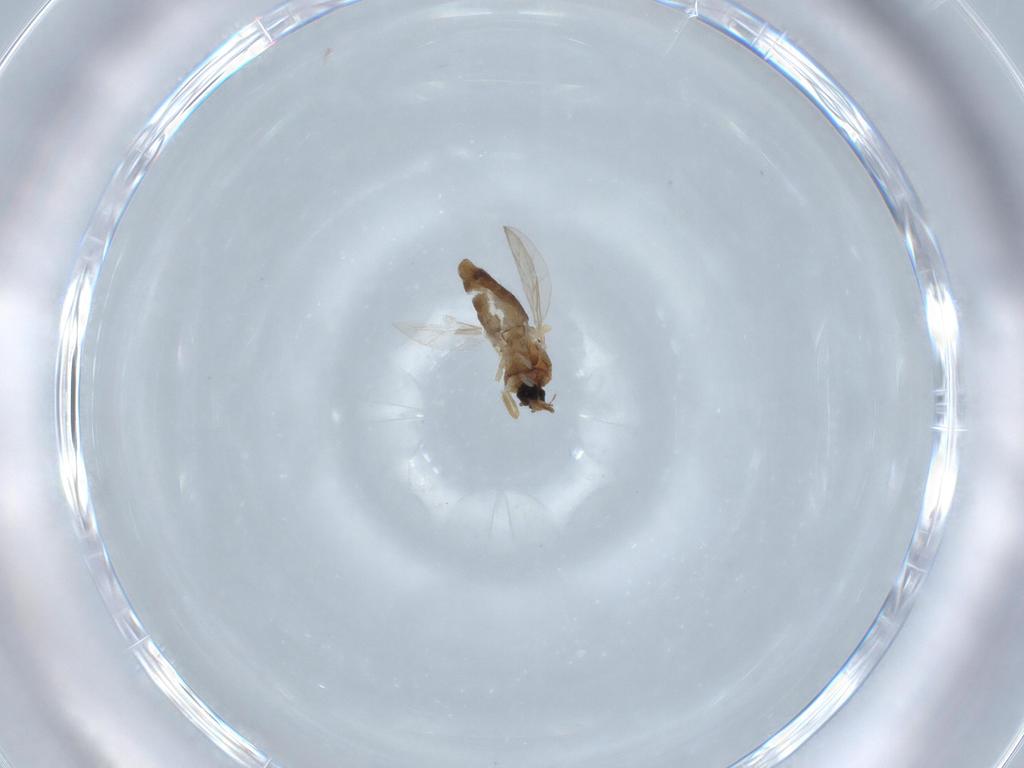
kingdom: Animalia
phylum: Arthropoda
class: Insecta
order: Diptera
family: Ceratopogonidae
